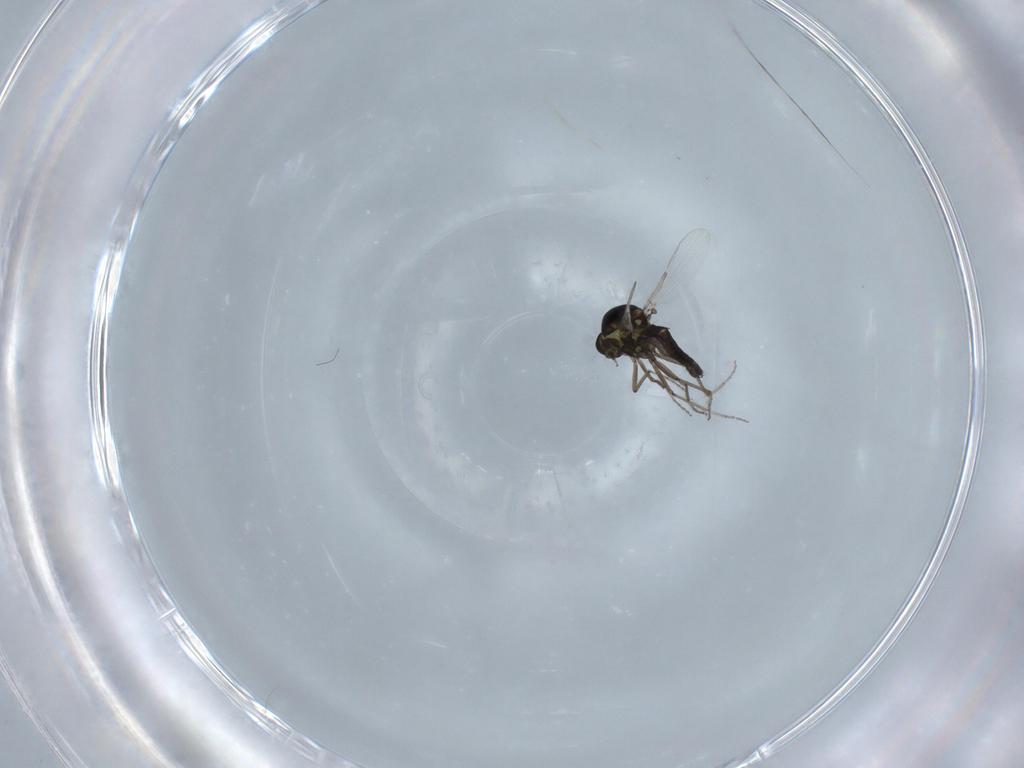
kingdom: Animalia
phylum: Arthropoda
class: Insecta
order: Diptera
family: Ceratopogonidae
